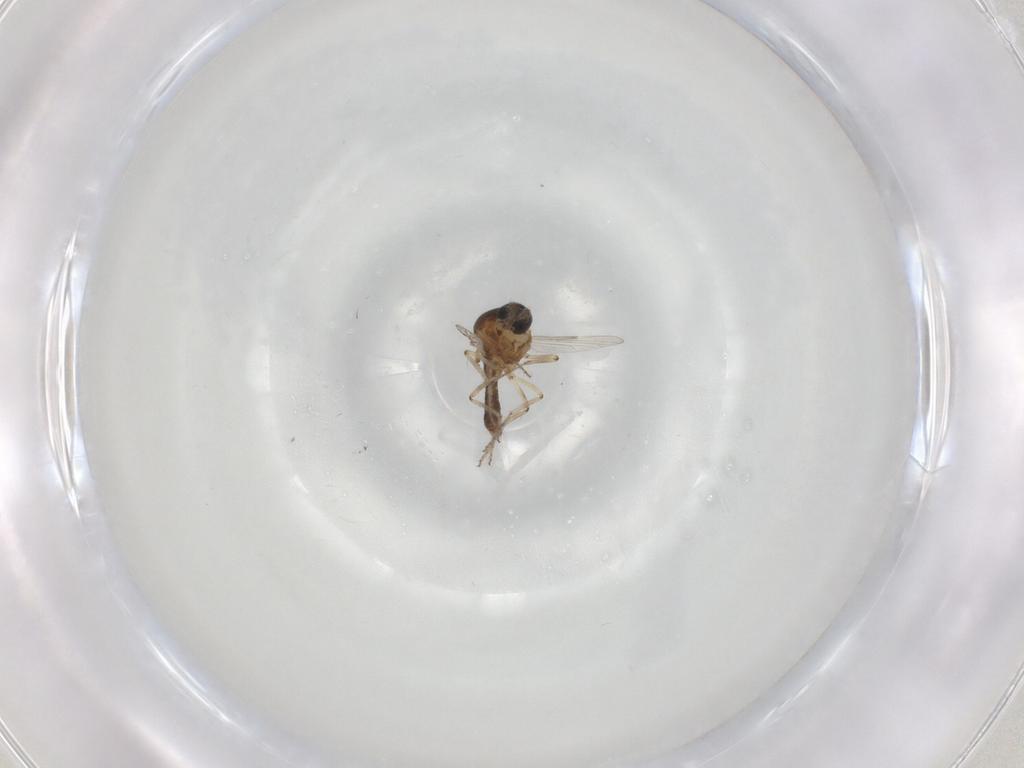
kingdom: Animalia
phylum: Arthropoda
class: Insecta
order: Diptera
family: Ceratopogonidae
